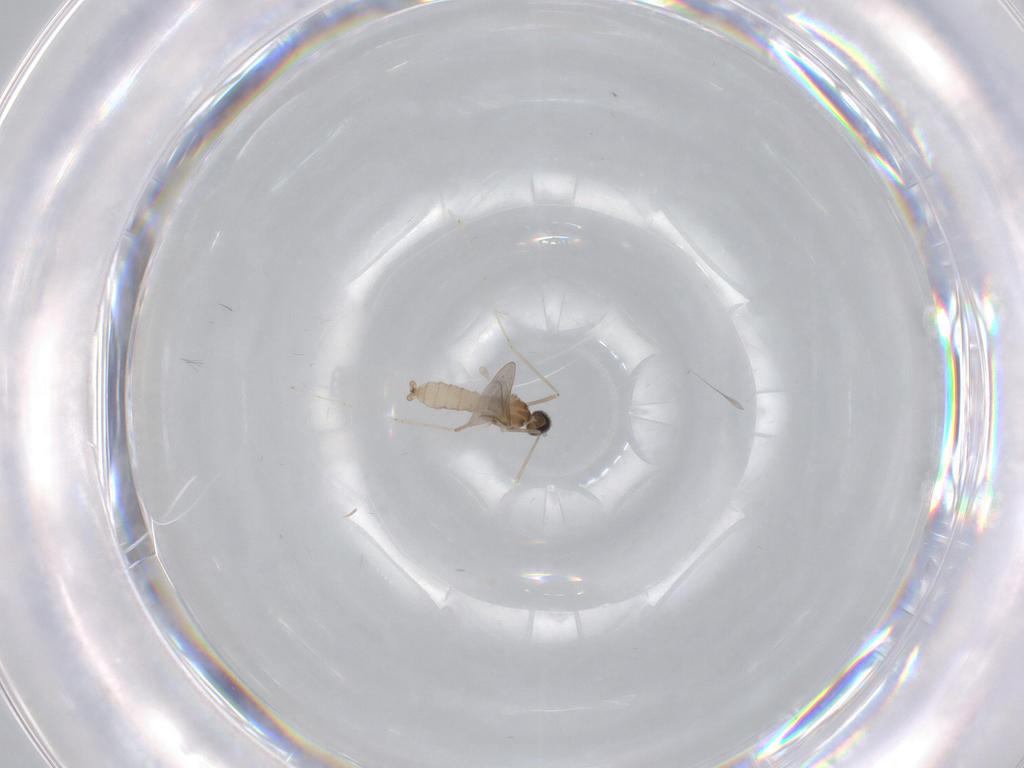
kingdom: Animalia
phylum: Arthropoda
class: Insecta
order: Diptera
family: Cecidomyiidae
